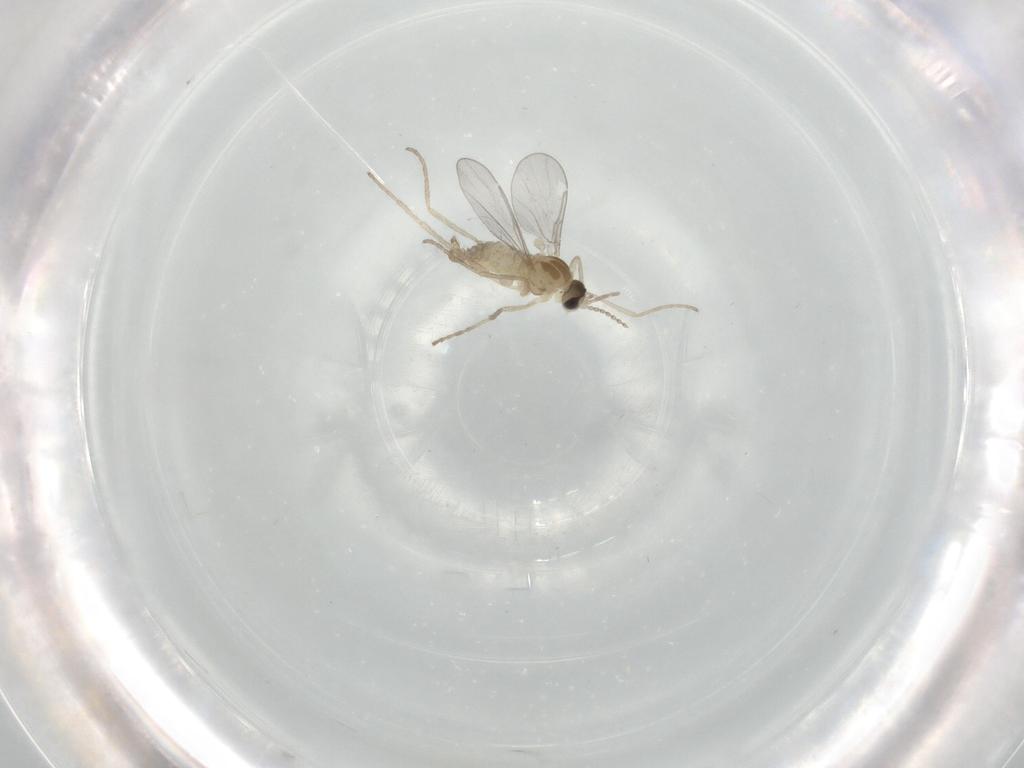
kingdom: Animalia
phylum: Arthropoda
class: Insecta
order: Diptera
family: Cecidomyiidae
